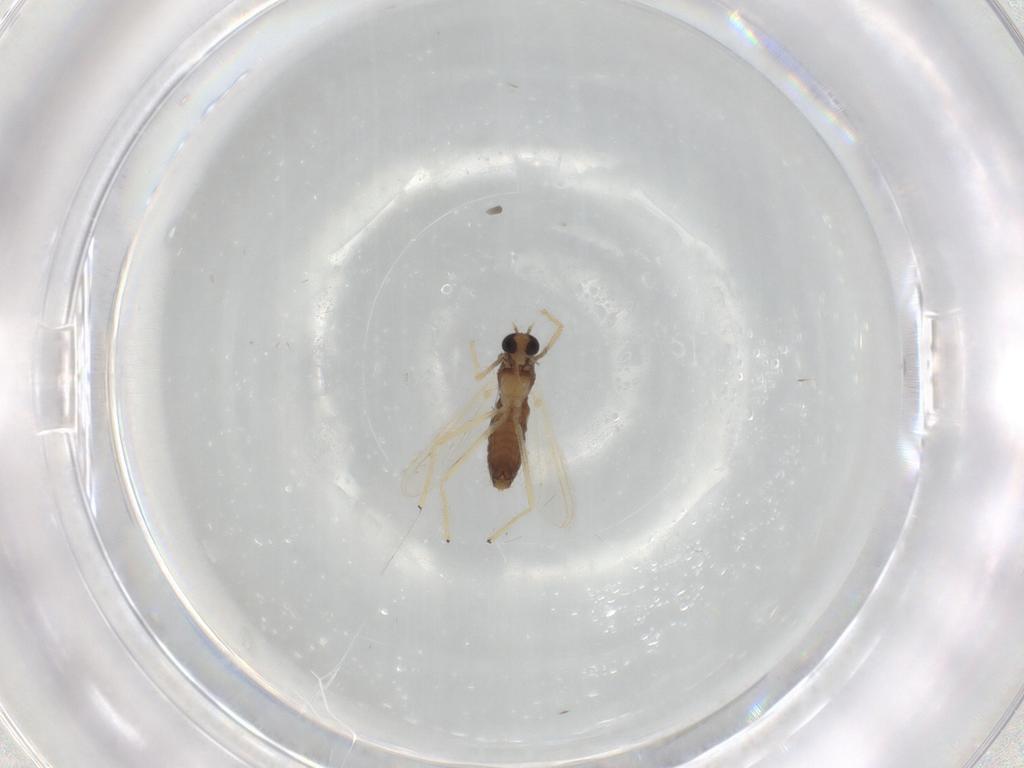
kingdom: Animalia
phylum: Arthropoda
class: Insecta
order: Diptera
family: Chironomidae
